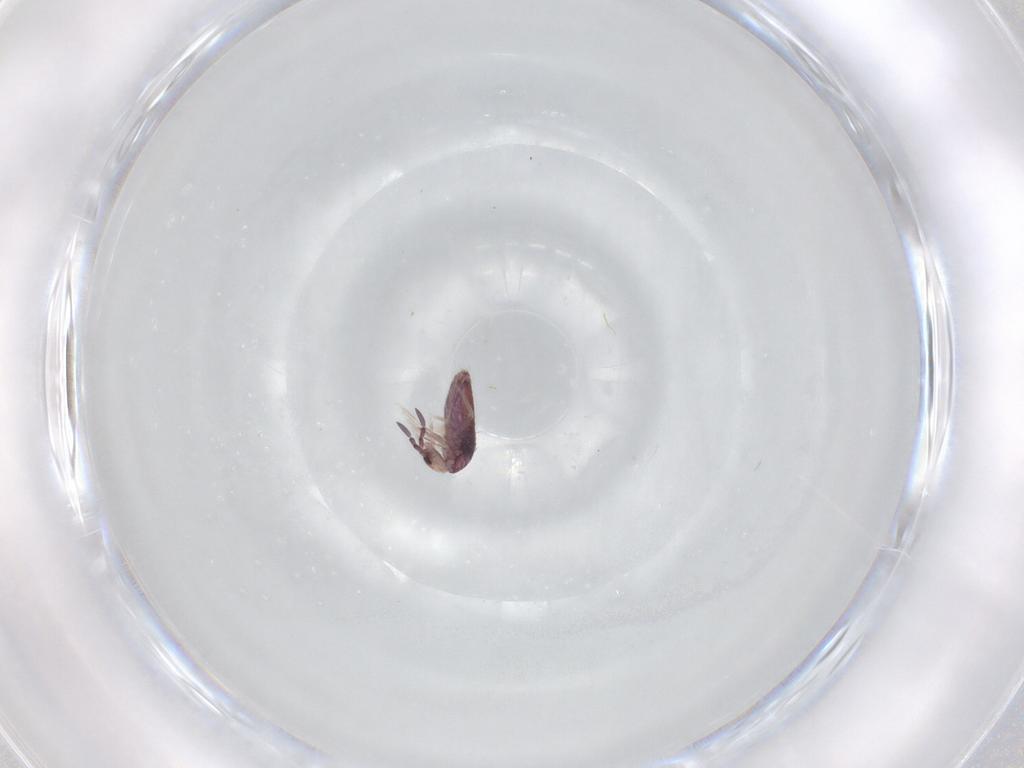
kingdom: Animalia
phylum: Arthropoda
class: Collembola
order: Entomobryomorpha
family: Entomobryidae
